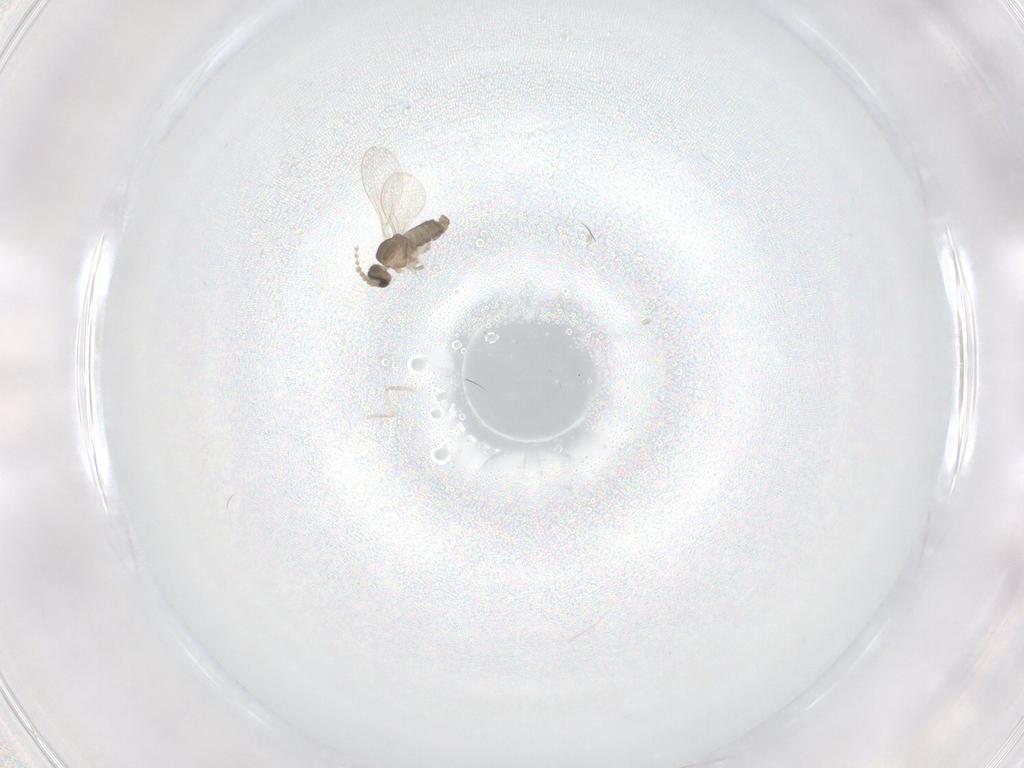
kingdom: Animalia
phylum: Arthropoda
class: Insecta
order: Diptera
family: Cecidomyiidae
